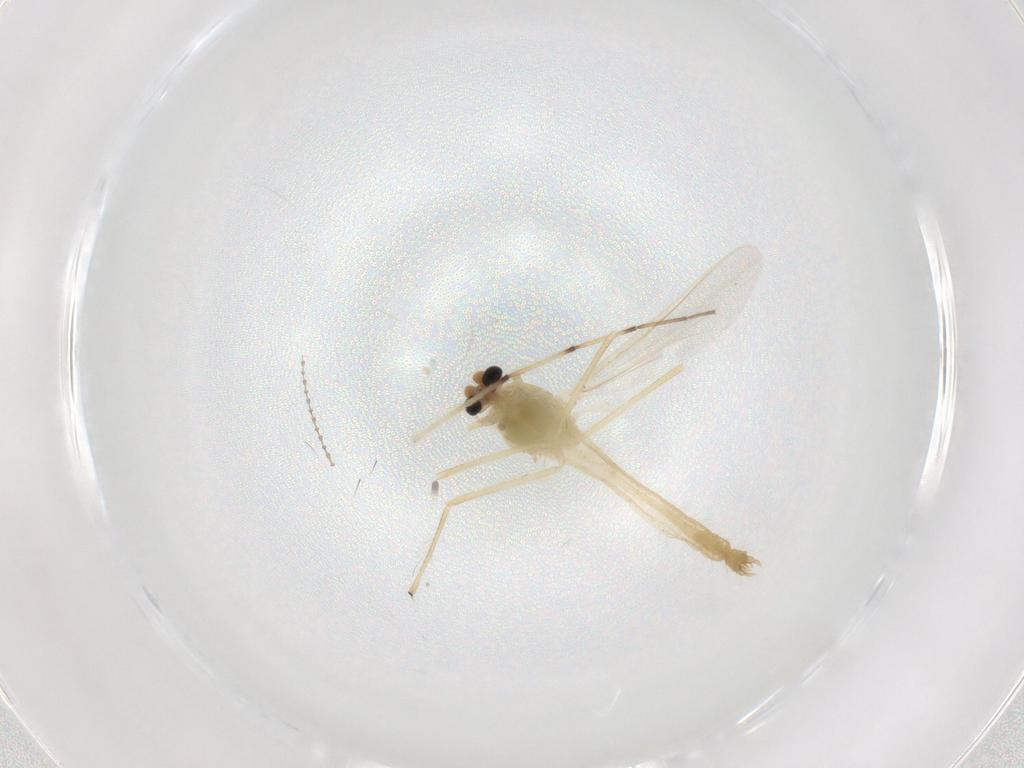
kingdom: Animalia
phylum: Arthropoda
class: Insecta
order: Diptera
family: Chironomidae
